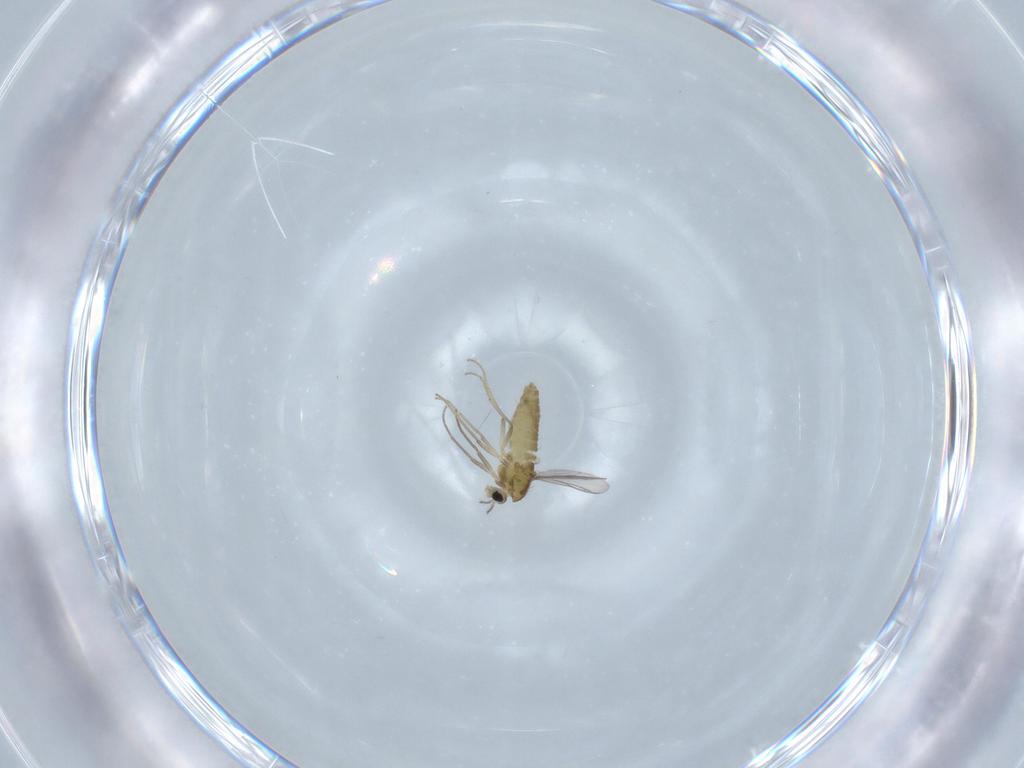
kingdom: Animalia
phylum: Arthropoda
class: Insecta
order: Diptera
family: Chironomidae
